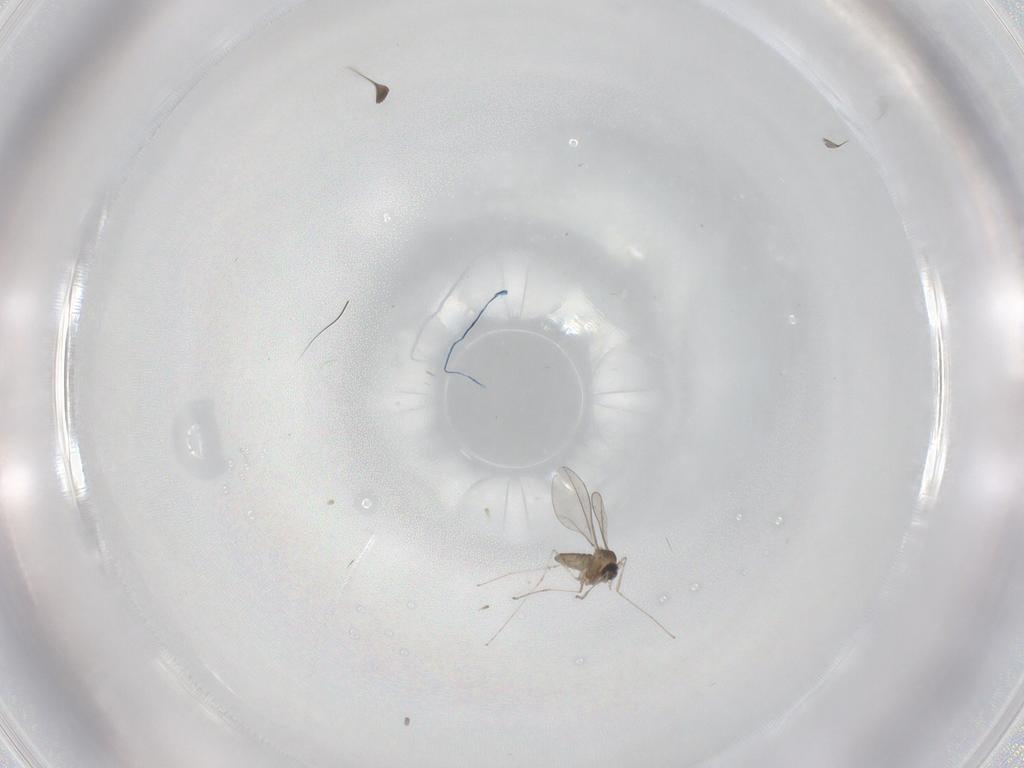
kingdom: Animalia
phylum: Arthropoda
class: Insecta
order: Diptera
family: Cecidomyiidae
